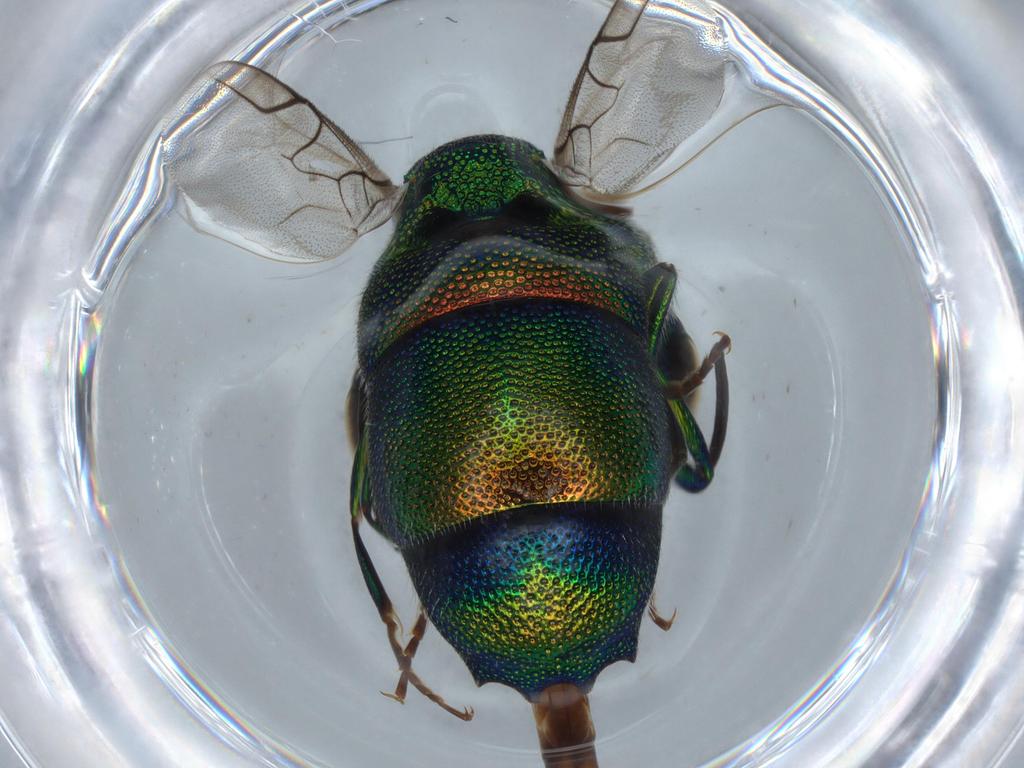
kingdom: Animalia
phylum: Arthropoda
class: Insecta
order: Hymenoptera
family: Chrysididae
